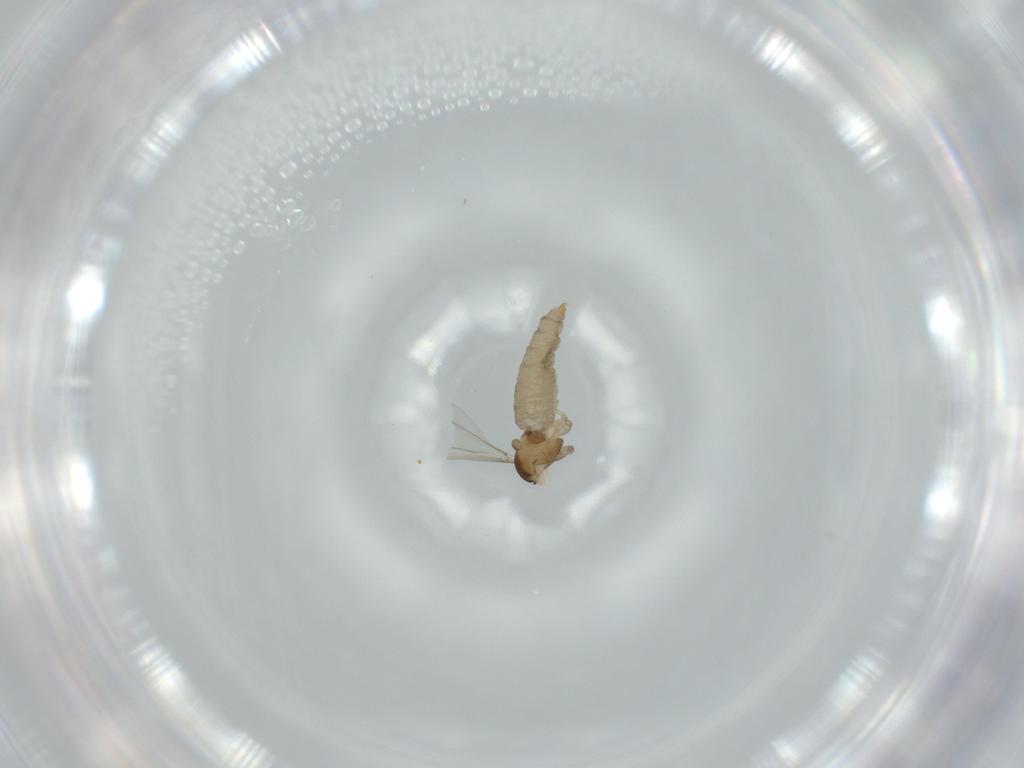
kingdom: Animalia
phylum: Arthropoda
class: Insecta
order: Diptera
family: Cecidomyiidae
